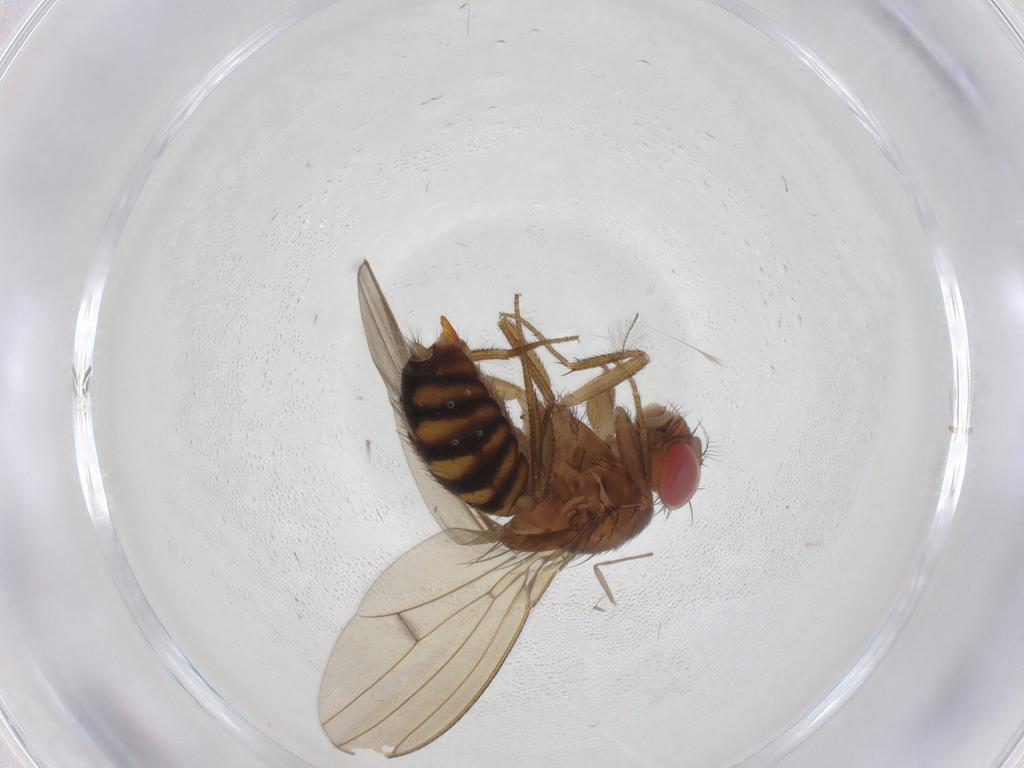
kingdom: Animalia
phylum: Arthropoda
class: Insecta
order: Diptera
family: Drosophilidae
